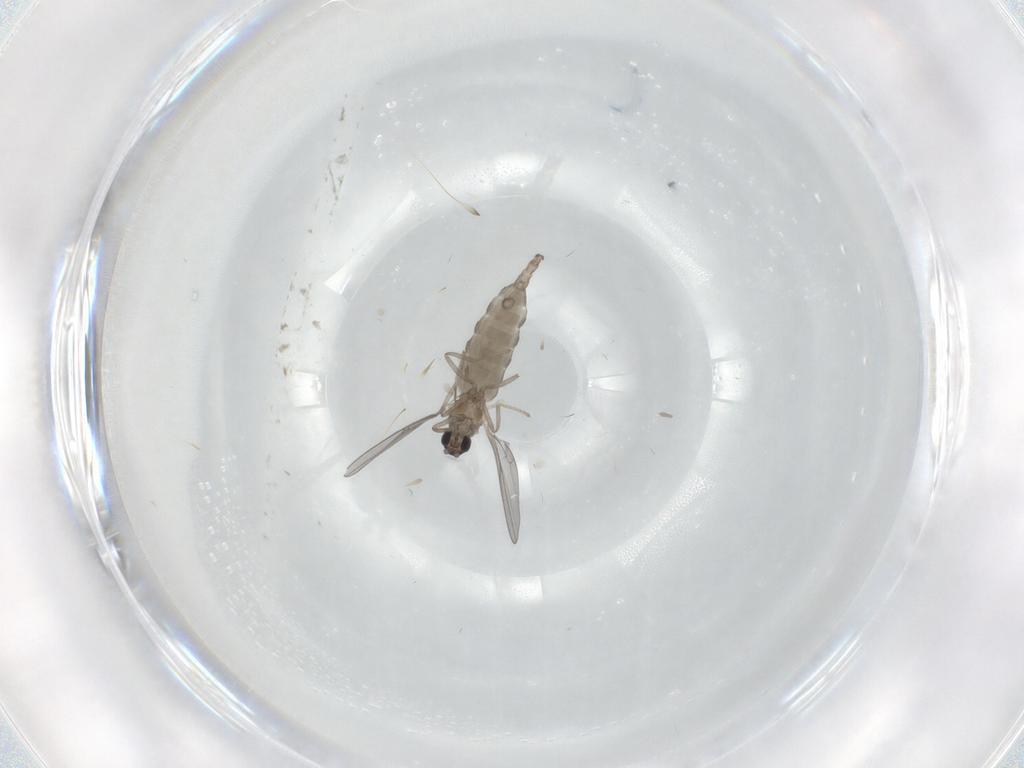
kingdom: Animalia
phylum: Arthropoda
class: Insecta
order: Diptera
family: Cecidomyiidae
